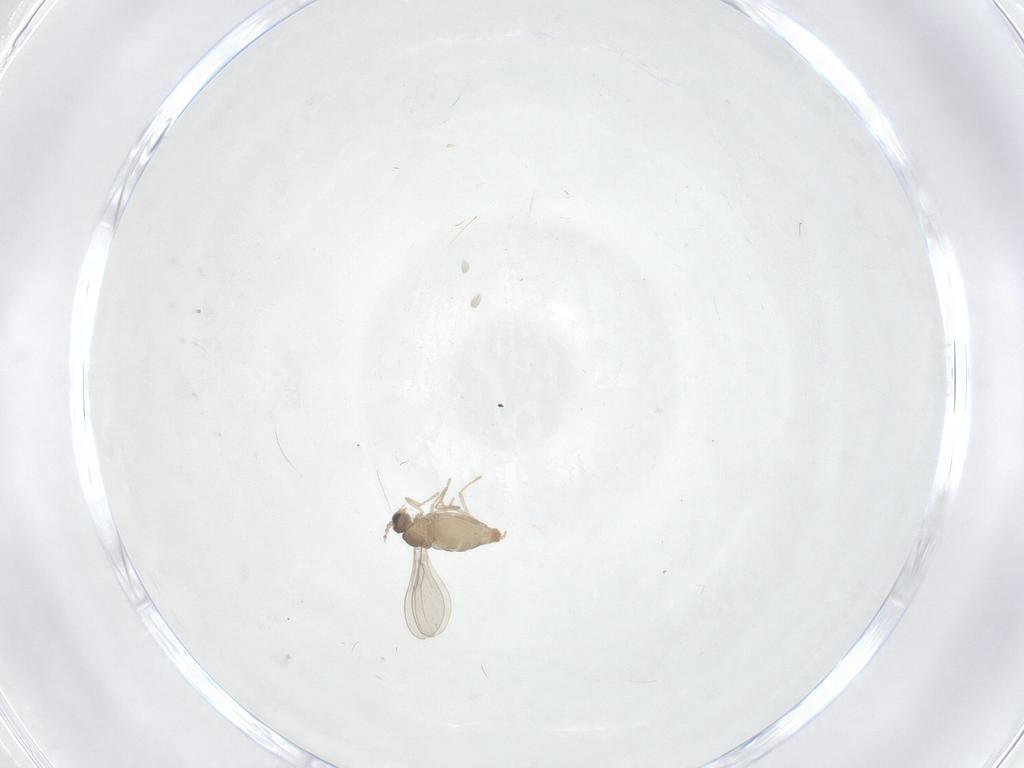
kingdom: Animalia
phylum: Arthropoda
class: Insecta
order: Diptera
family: Cecidomyiidae
